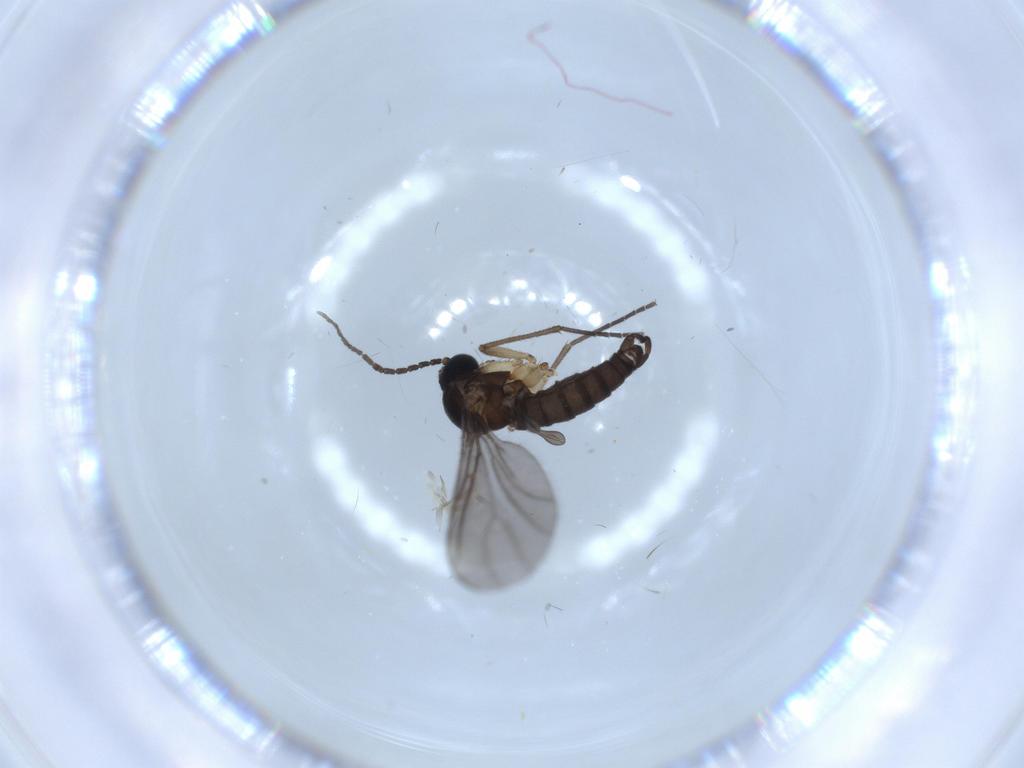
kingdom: Animalia
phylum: Arthropoda
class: Insecta
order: Diptera
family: Sciaridae
